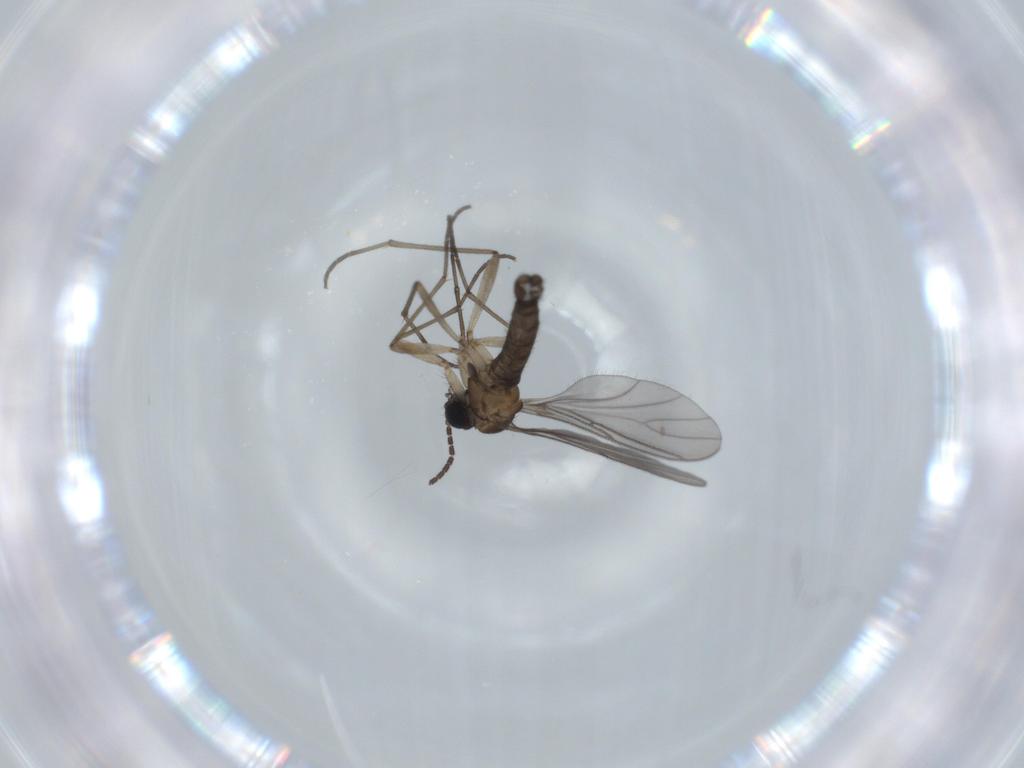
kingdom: Animalia
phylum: Arthropoda
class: Insecta
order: Diptera
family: Sciaridae
